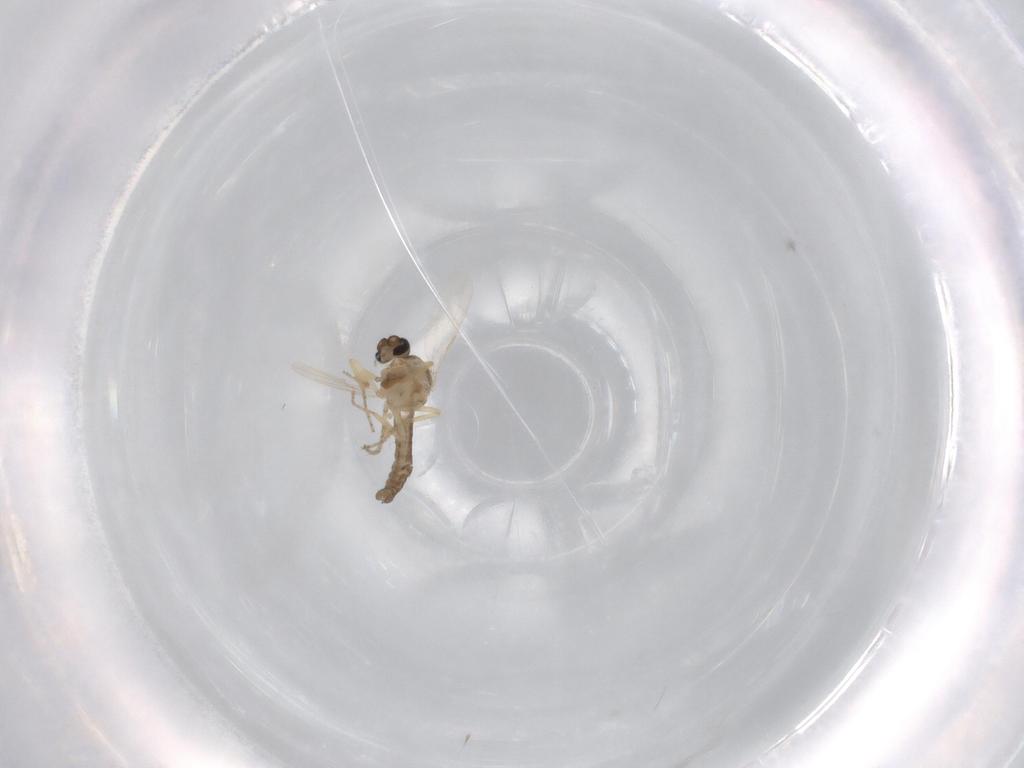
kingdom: Animalia
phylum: Arthropoda
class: Insecta
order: Diptera
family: Ceratopogonidae
